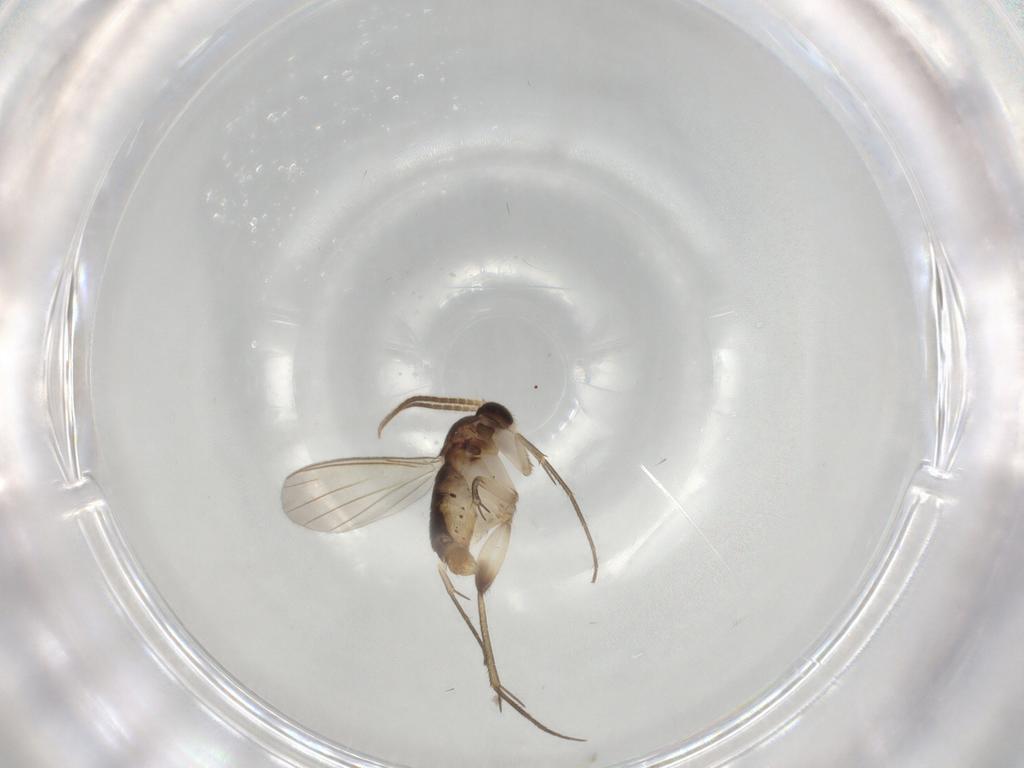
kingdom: Animalia
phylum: Arthropoda
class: Insecta
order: Diptera
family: Mycetophilidae
